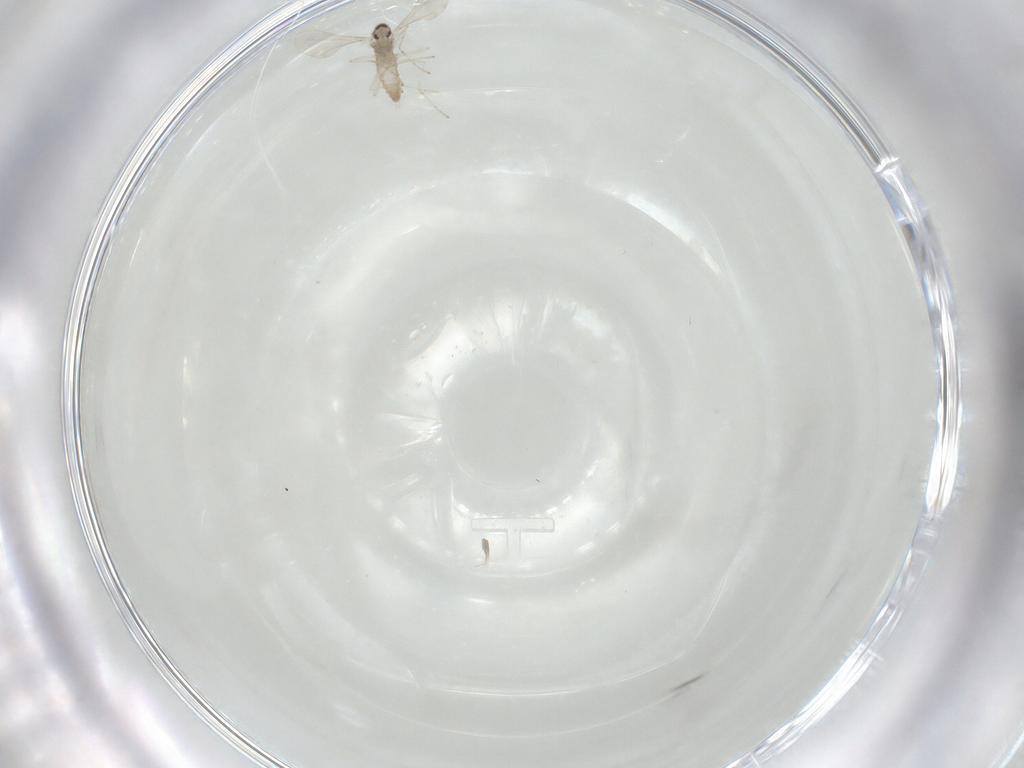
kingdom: Animalia
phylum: Arthropoda
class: Insecta
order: Diptera
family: Cecidomyiidae
